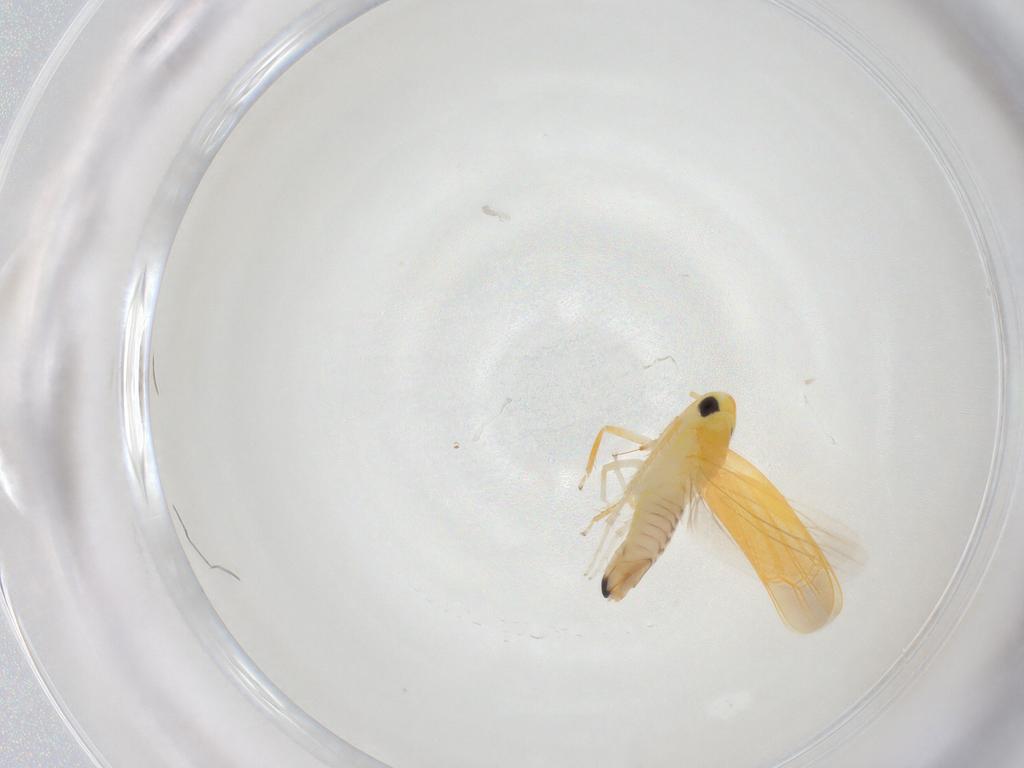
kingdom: Animalia
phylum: Arthropoda
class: Insecta
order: Hemiptera
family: Cicadellidae
